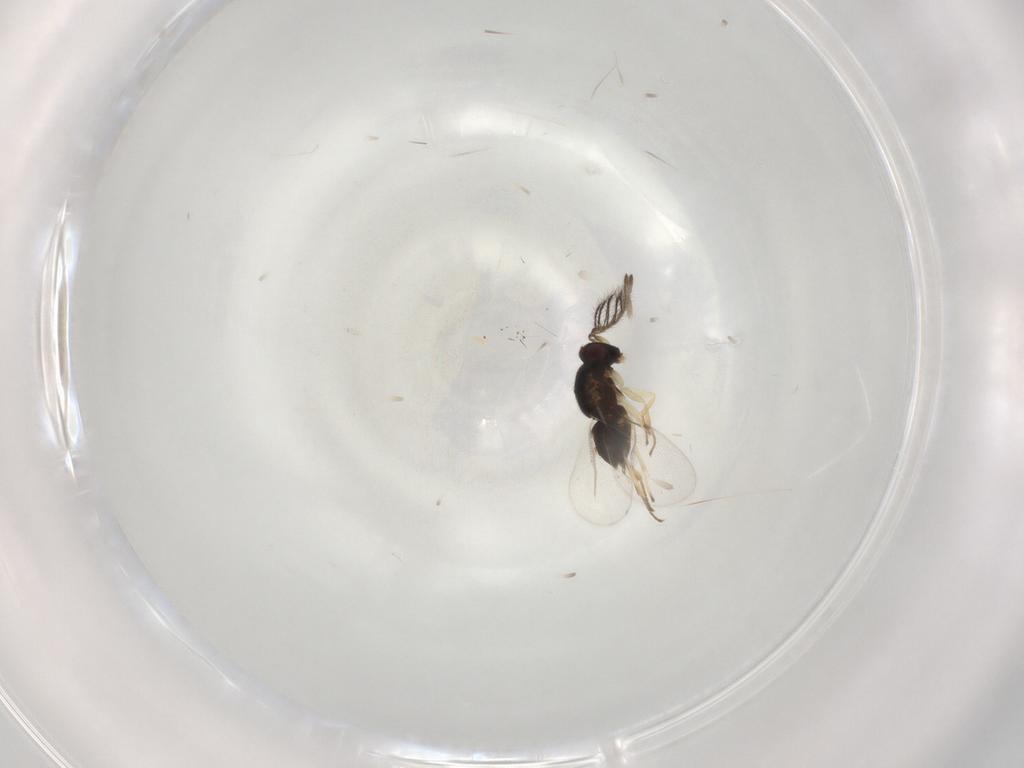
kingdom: Animalia
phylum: Arthropoda
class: Insecta
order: Hymenoptera
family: Encyrtidae
